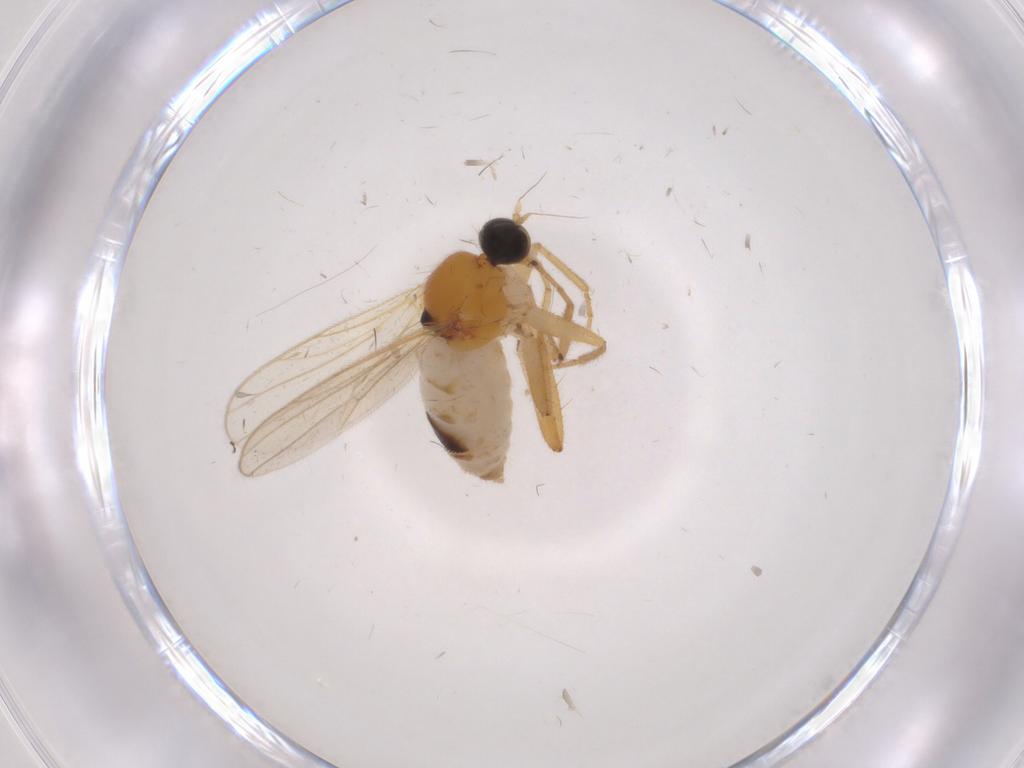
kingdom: Animalia
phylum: Arthropoda
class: Insecta
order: Diptera
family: Hybotidae
